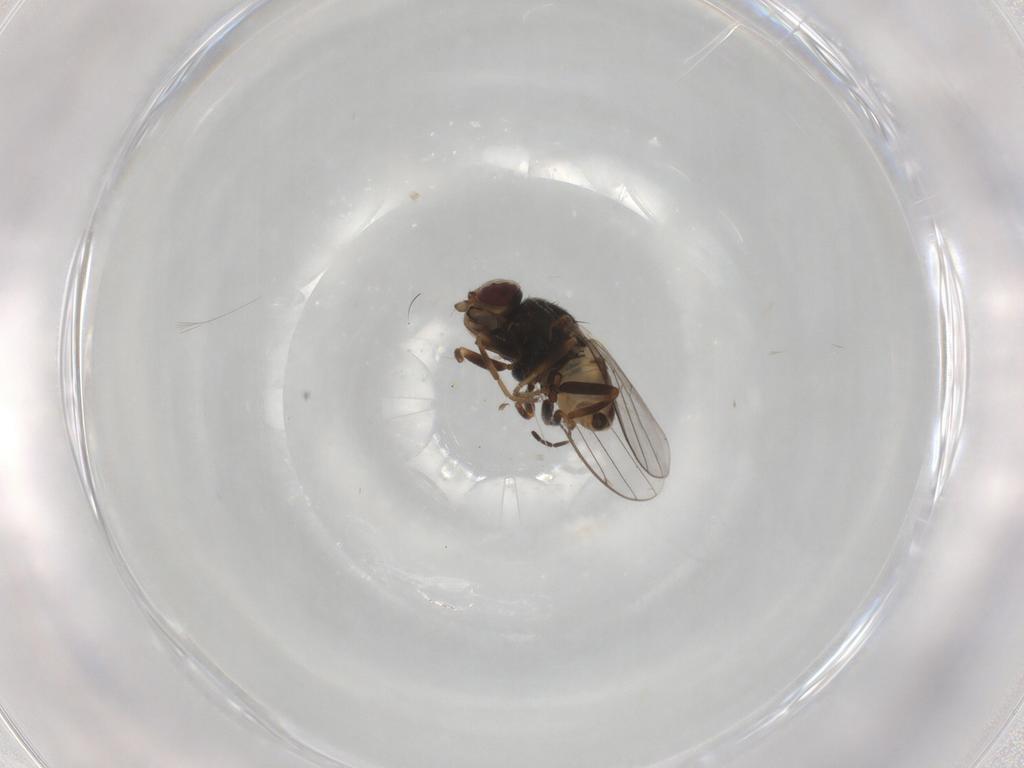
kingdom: Animalia
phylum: Arthropoda
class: Insecta
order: Diptera
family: Chloropidae
